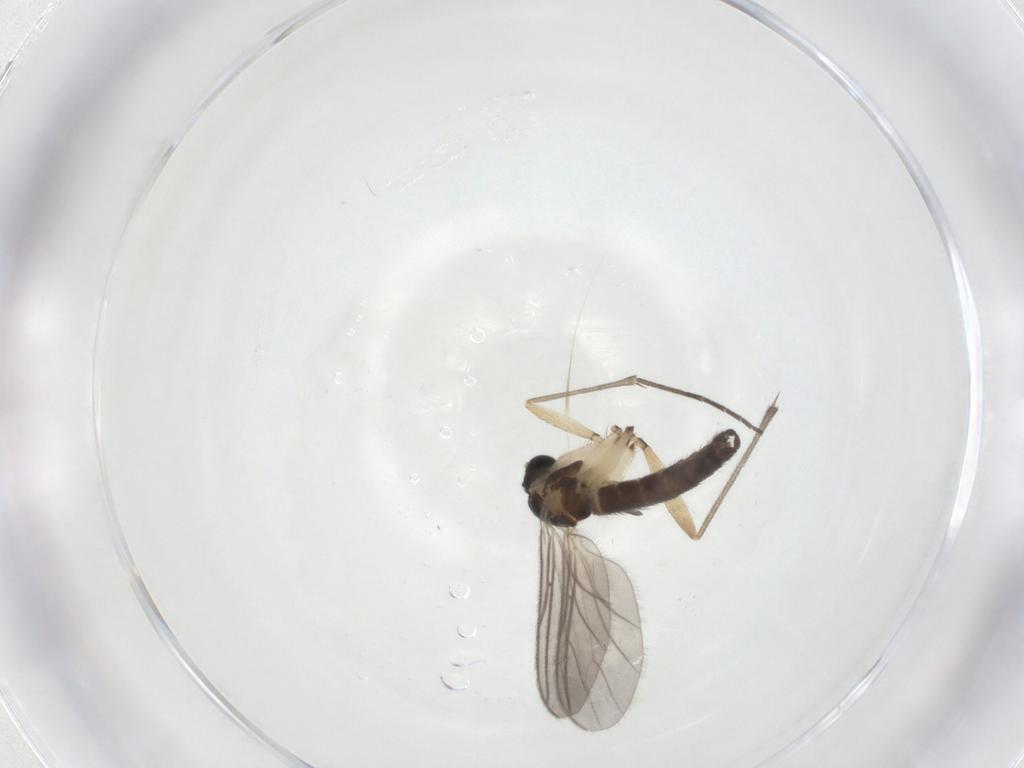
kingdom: Animalia
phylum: Arthropoda
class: Insecta
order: Diptera
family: Sciaridae
